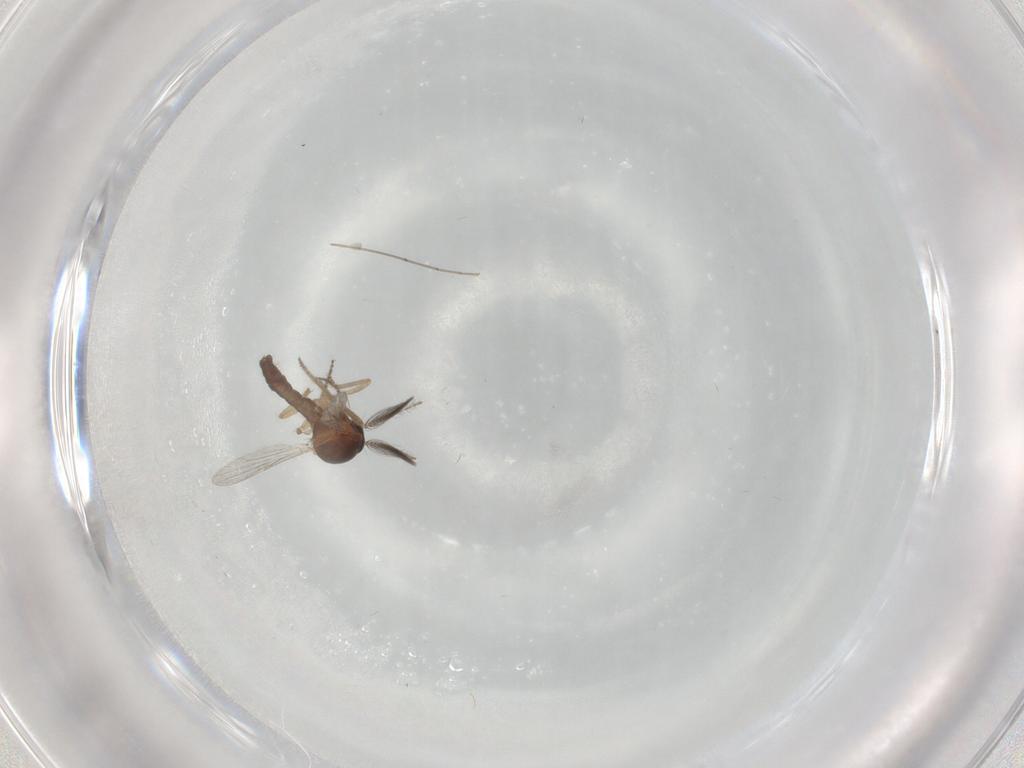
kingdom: Animalia
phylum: Arthropoda
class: Insecta
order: Diptera
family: Ceratopogonidae
